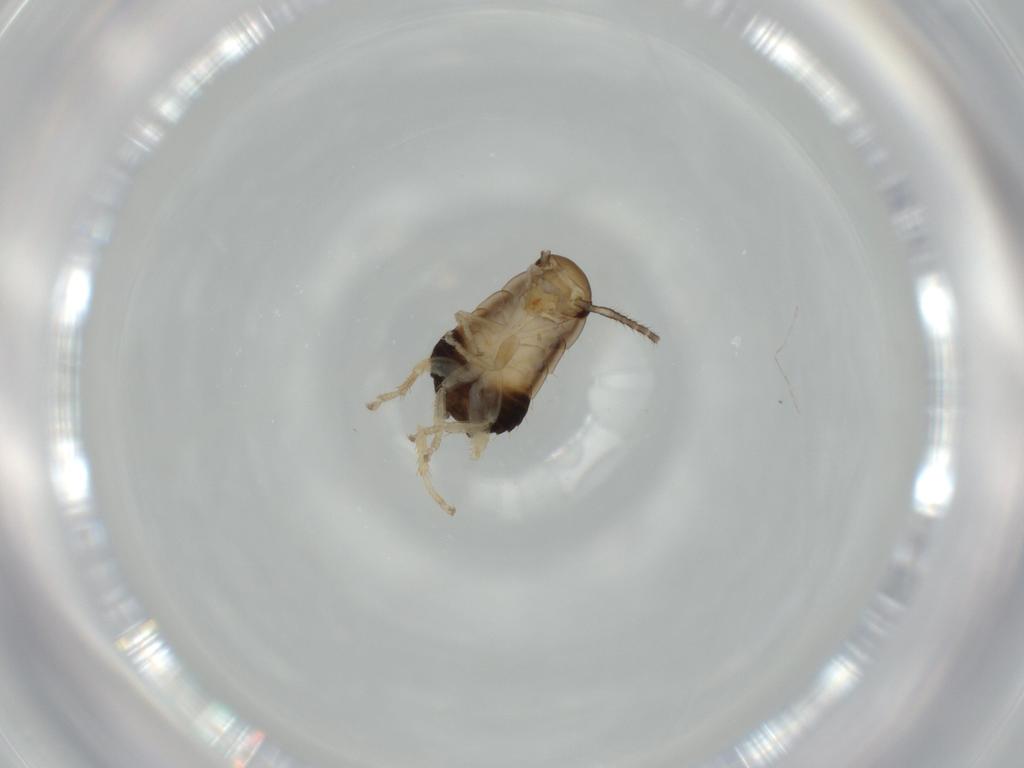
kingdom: Animalia
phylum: Arthropoda
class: Insecta
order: Blattodea
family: Ectobiidae
